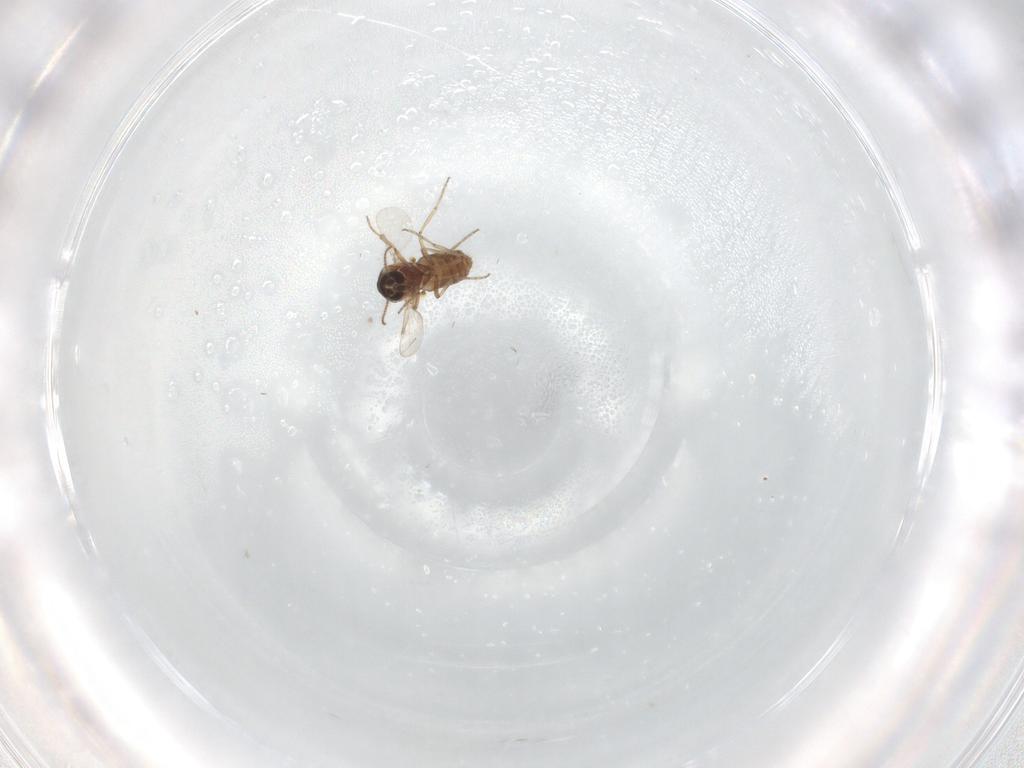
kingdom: Animalia
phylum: Arthropoda
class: Insecta
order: Diptera
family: Ceratopogonidae
